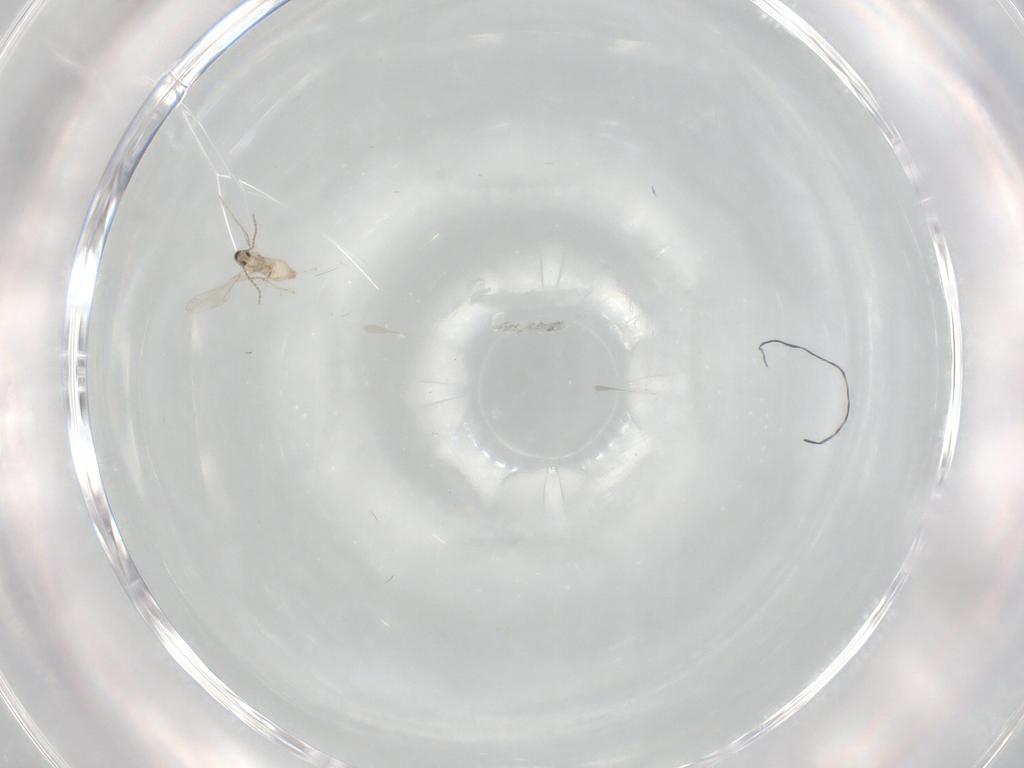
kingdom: Animalia
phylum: Arthropoda
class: Insecta
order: Diptera
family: Cecidomyiidae
